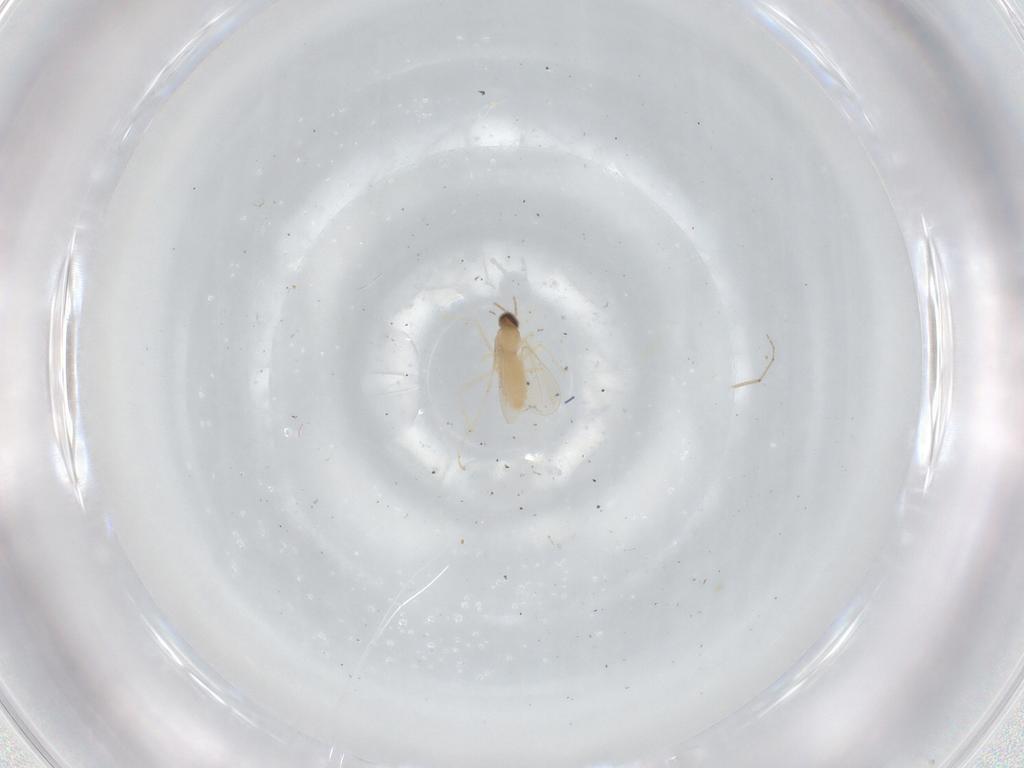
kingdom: Animalia
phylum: Arthropoda
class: Insecta
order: Diptera
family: Cecidomyiidae
